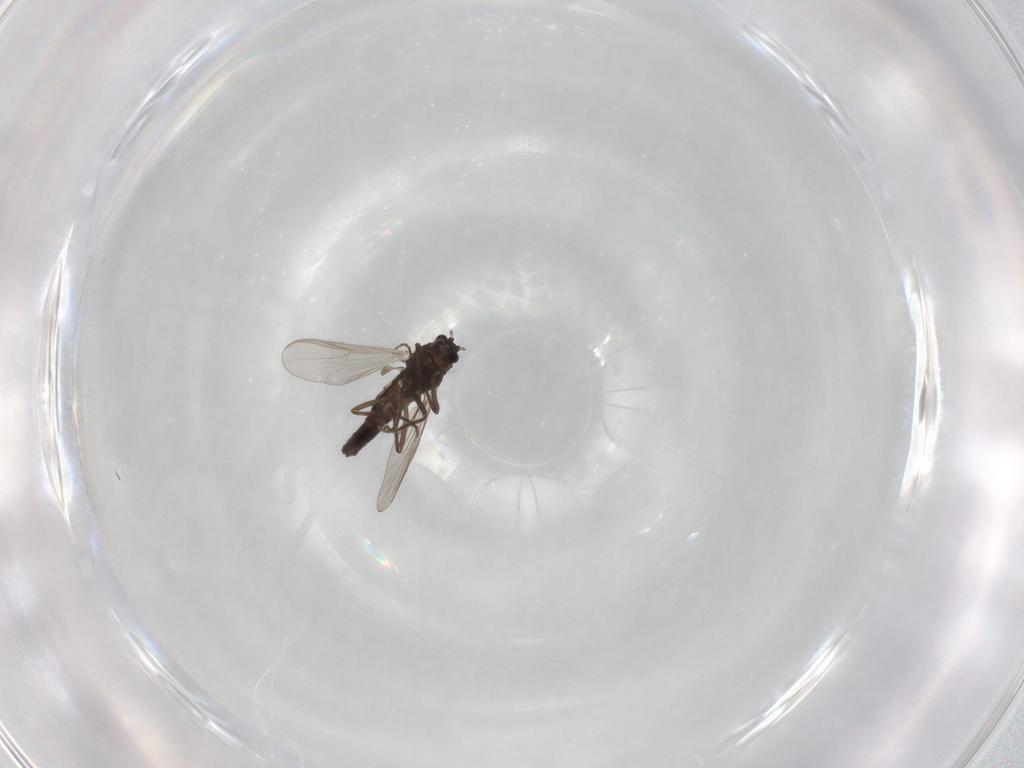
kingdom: Animalia
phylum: Arthropoda
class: Insecta
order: Diptera
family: Chironomidae
